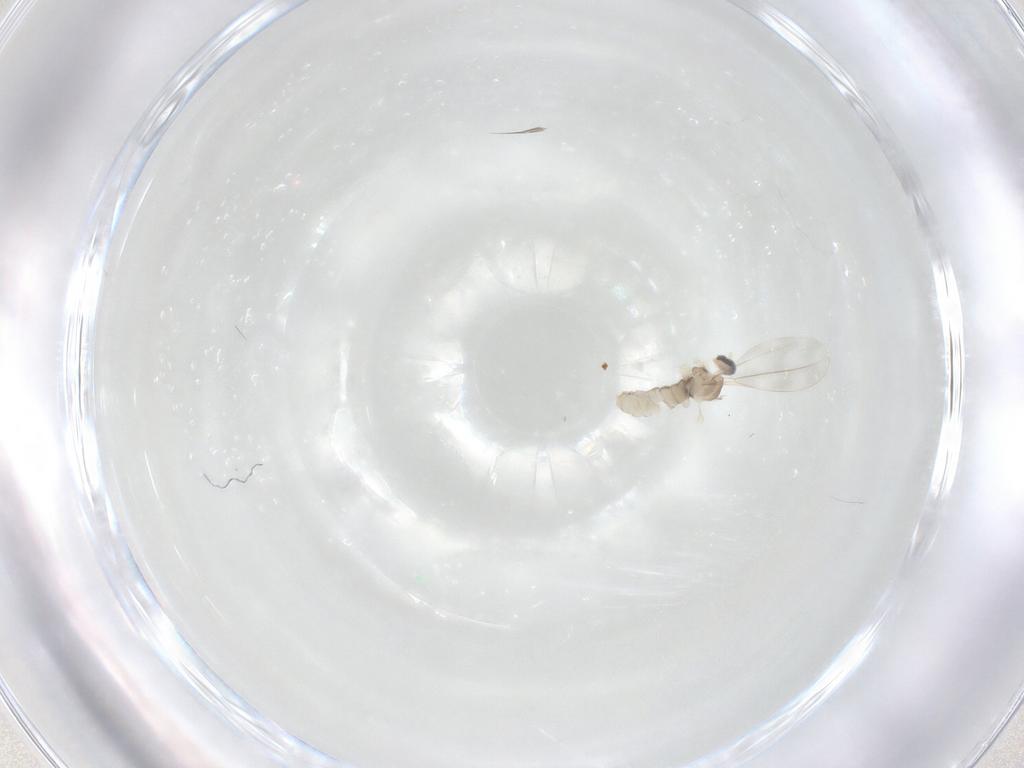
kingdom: Animalia
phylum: Arthropoda
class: Insecta
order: Diptera
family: Cecidomyiidae
